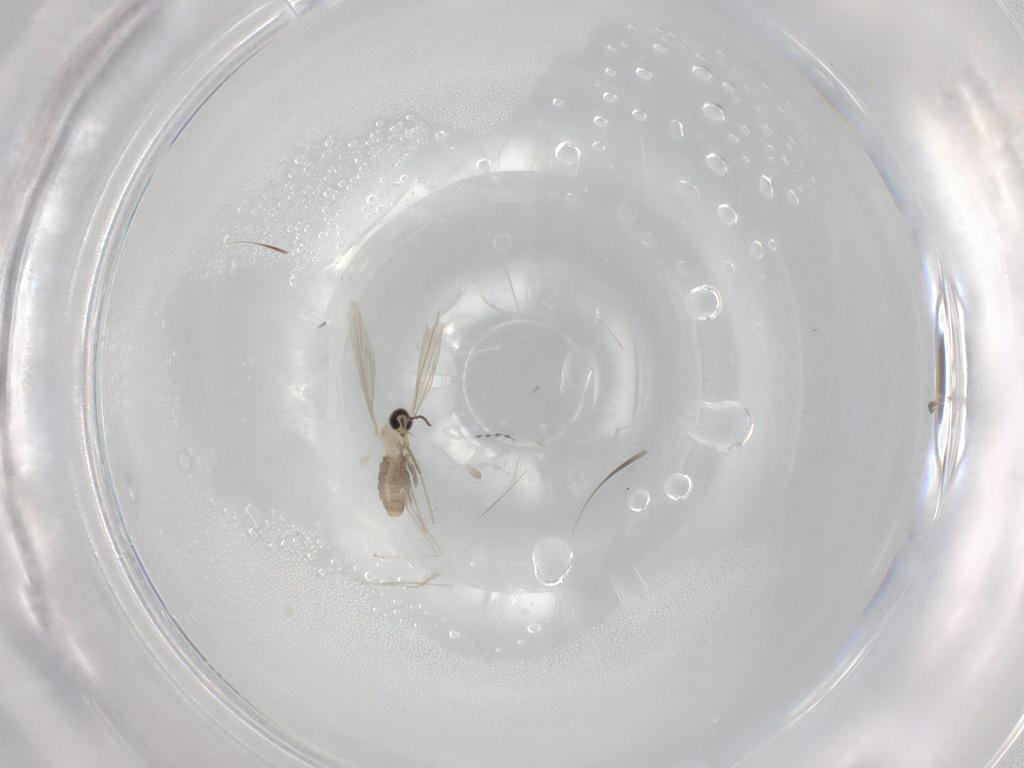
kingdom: Animalia
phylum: Arthropoda
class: Insecta
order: Diptera
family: Cecidomyiidae
